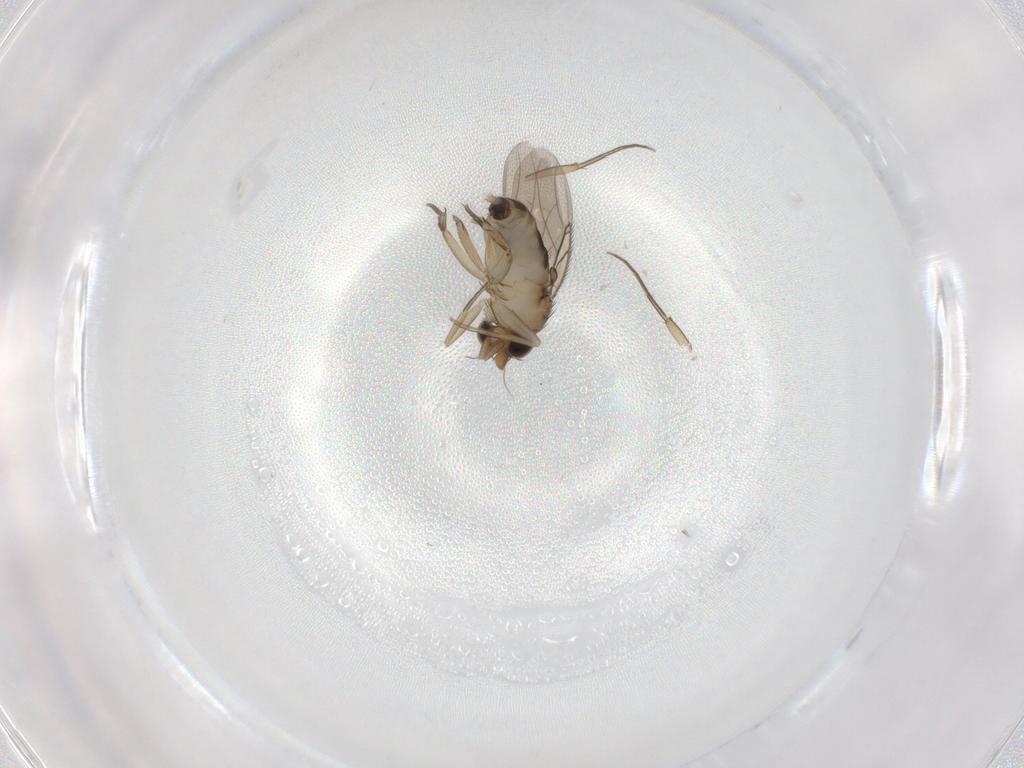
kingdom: Animalia
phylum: Arthropoda
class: Insecta
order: Diptera
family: Phoridae
